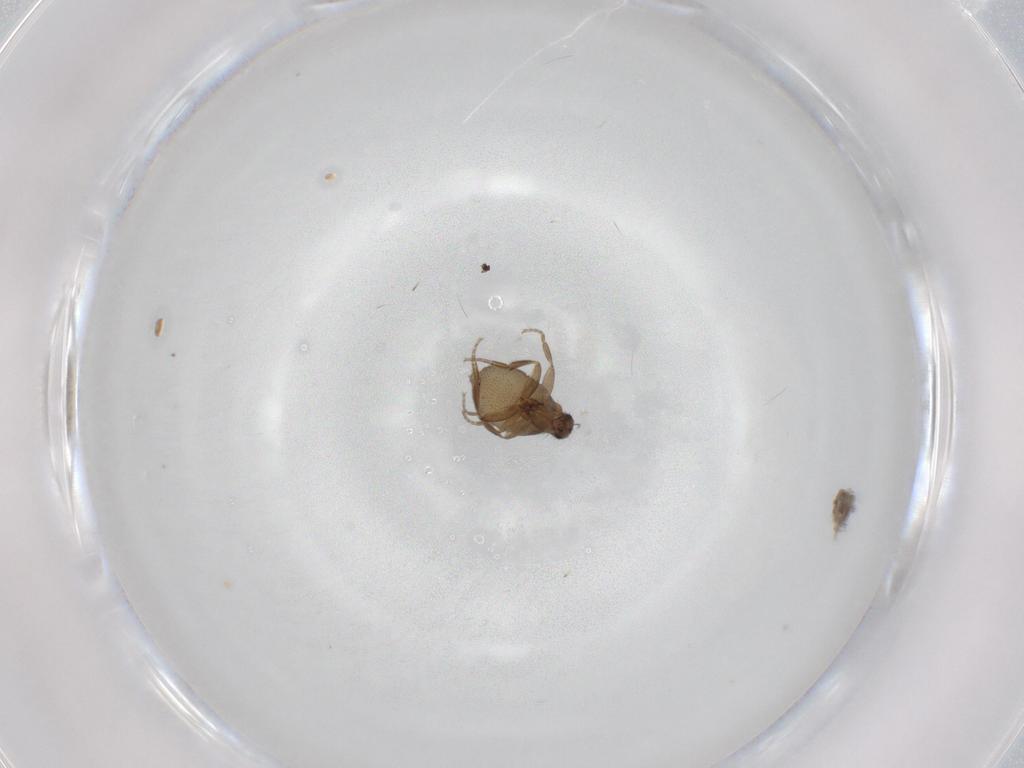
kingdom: Animalia
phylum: Arthropoda
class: Insecta
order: Diptera
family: Phoridae
